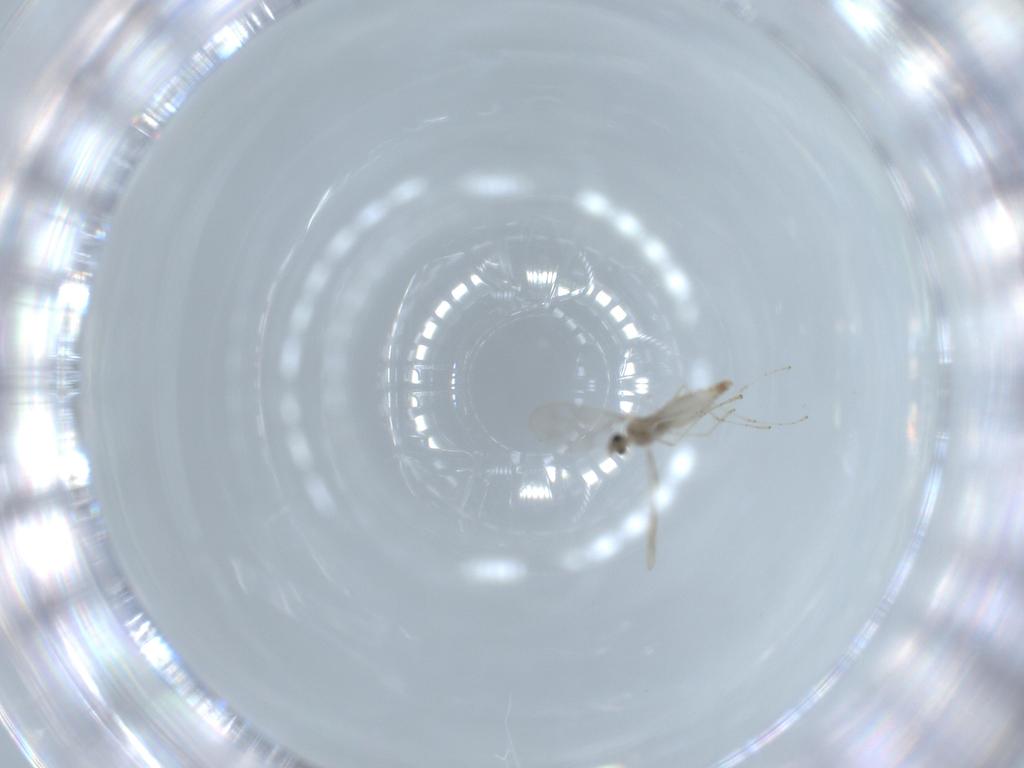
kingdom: Animalia
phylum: Arthropoda
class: Insecta
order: Diptera
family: Cecidomyiidae
